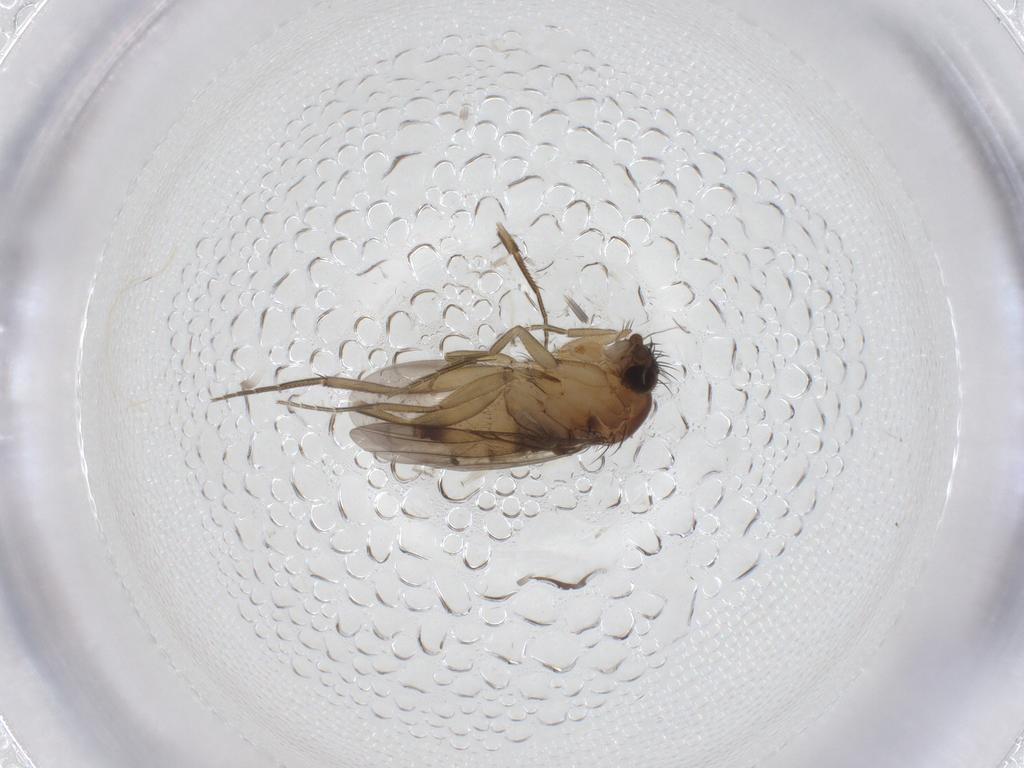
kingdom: Animalia
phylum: Arthropoda
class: Insecta
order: Diptera
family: Phoridae
